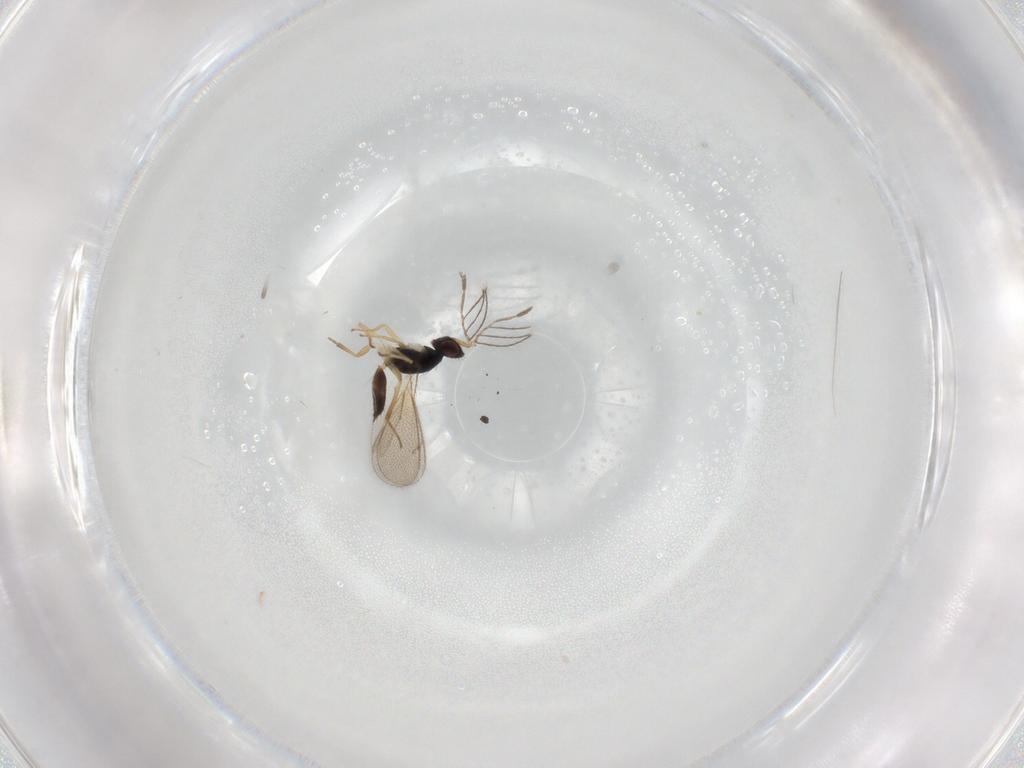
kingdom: Animalia
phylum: Arthropoda
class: Insecta
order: Hymenoptera
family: Eulophidae
